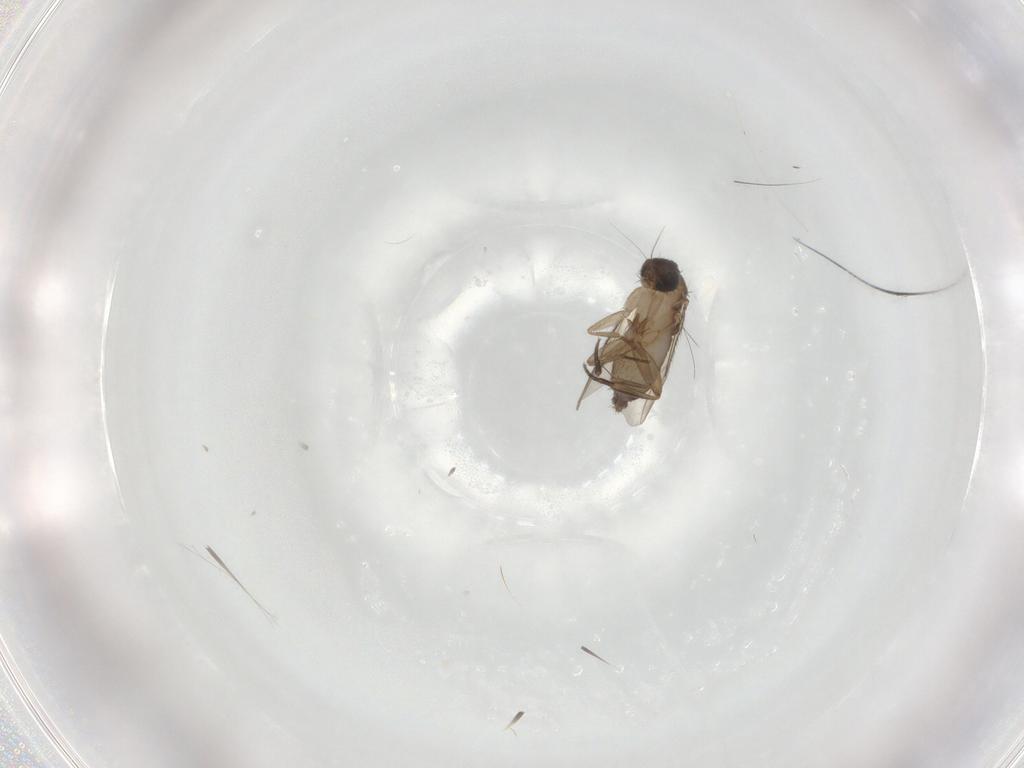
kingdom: Animalia
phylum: Arthropoda
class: Insecta
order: Diptera
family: Phoridae
